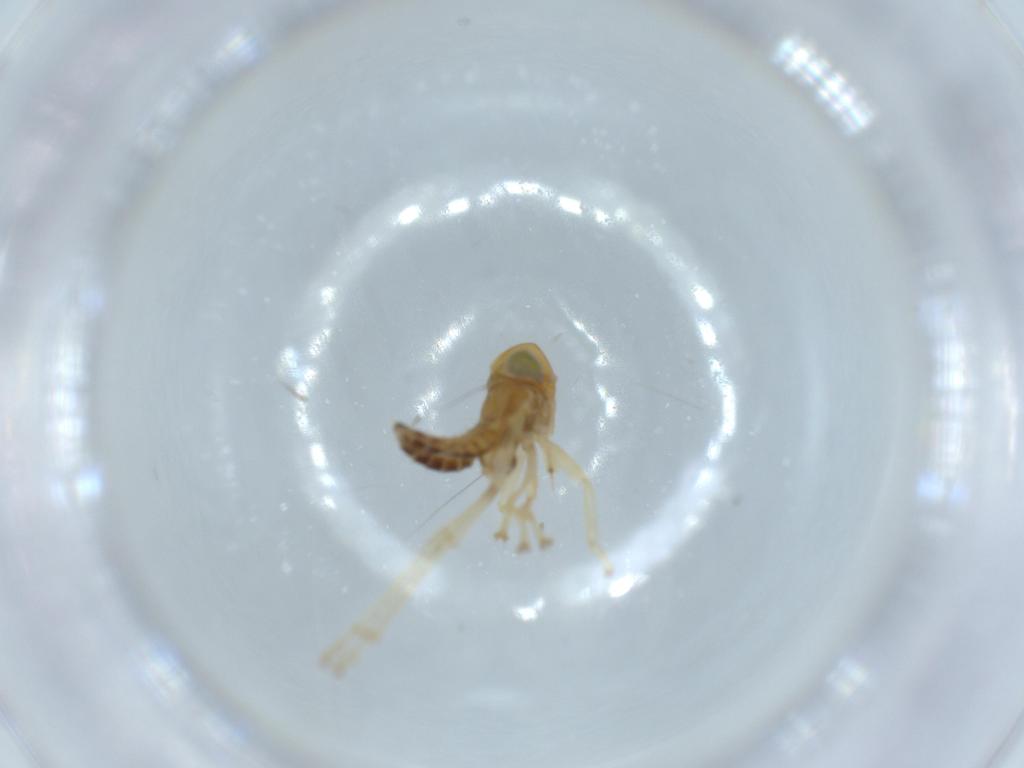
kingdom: Animalia
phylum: Arthropoda
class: Insecta
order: Hemiptera
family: Cicadellidae
